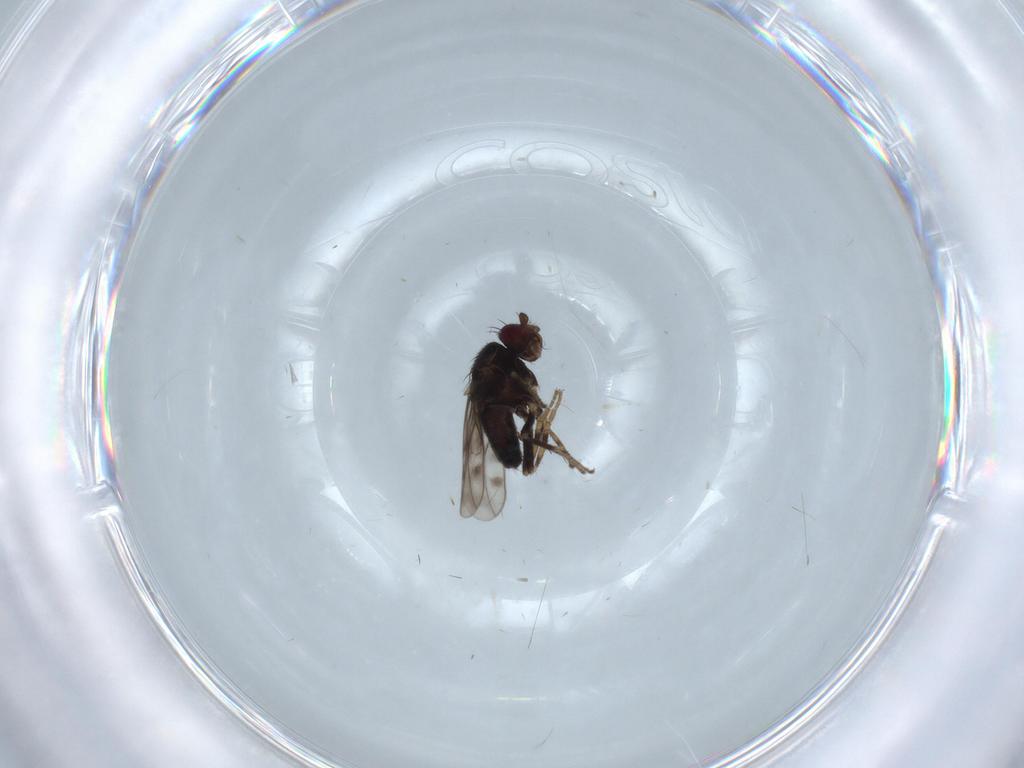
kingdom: Animalia
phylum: Arthropoda
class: Insecta
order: Diptera
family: Sphaeroceridae
